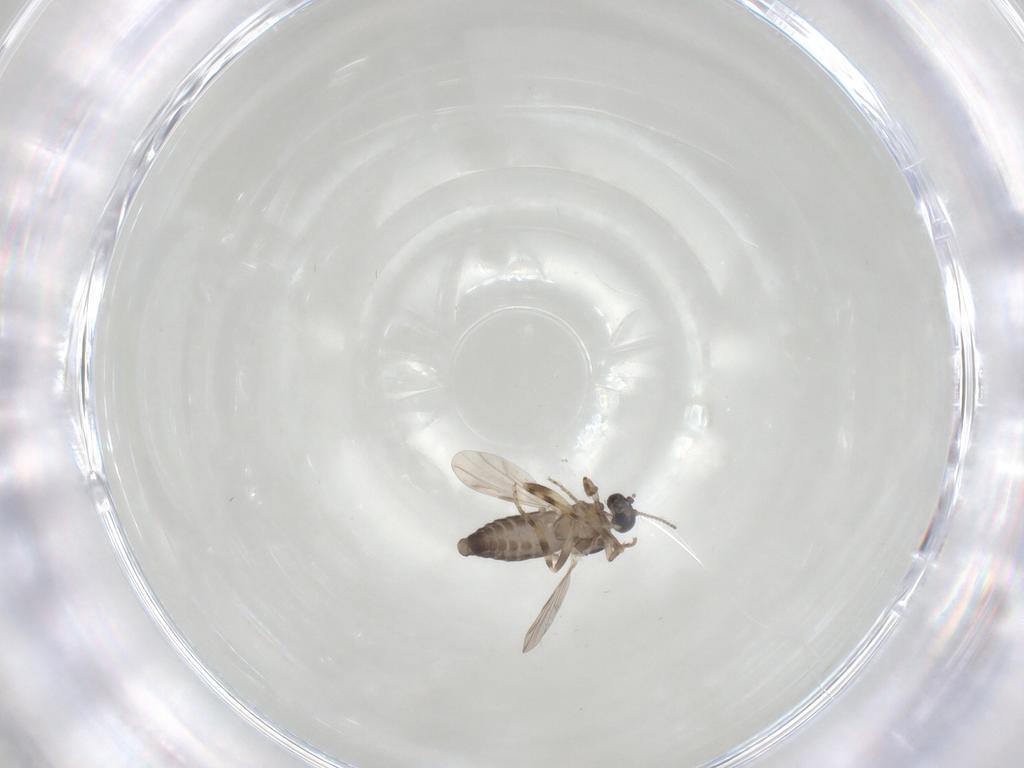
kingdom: Animalia
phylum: Arthropoda
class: Insecta
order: Diptera
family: Ceratopogonidae
